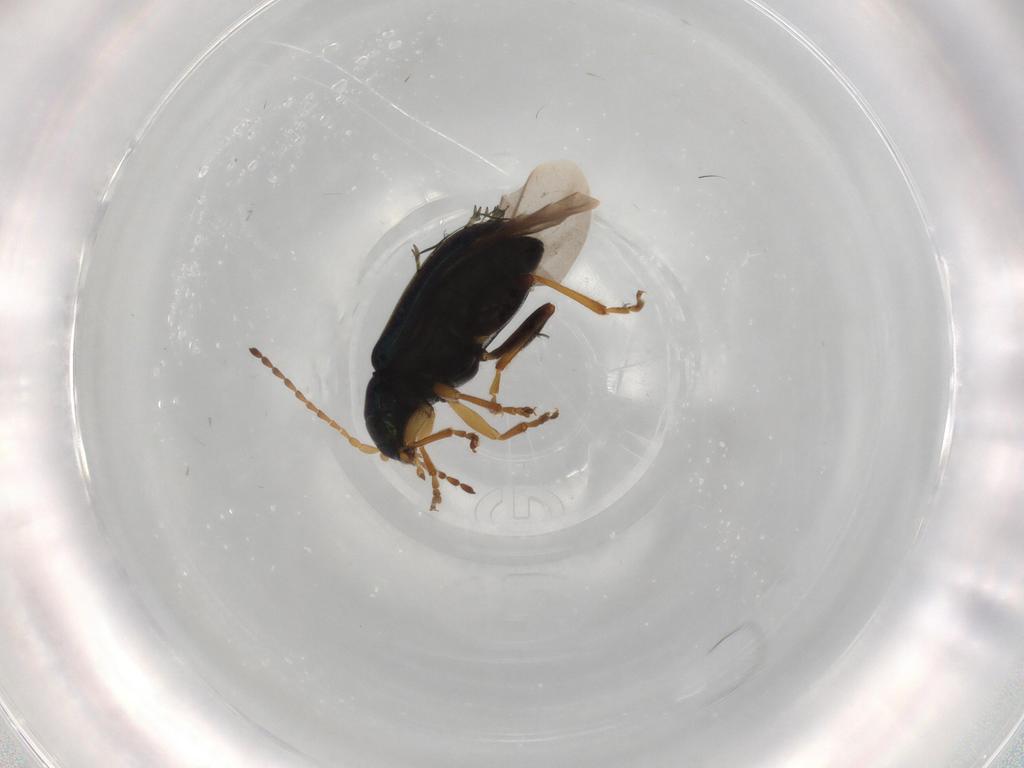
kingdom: Animalia
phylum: Arthropoda
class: Insecta
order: Coleoptera
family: Chrysomelidae
